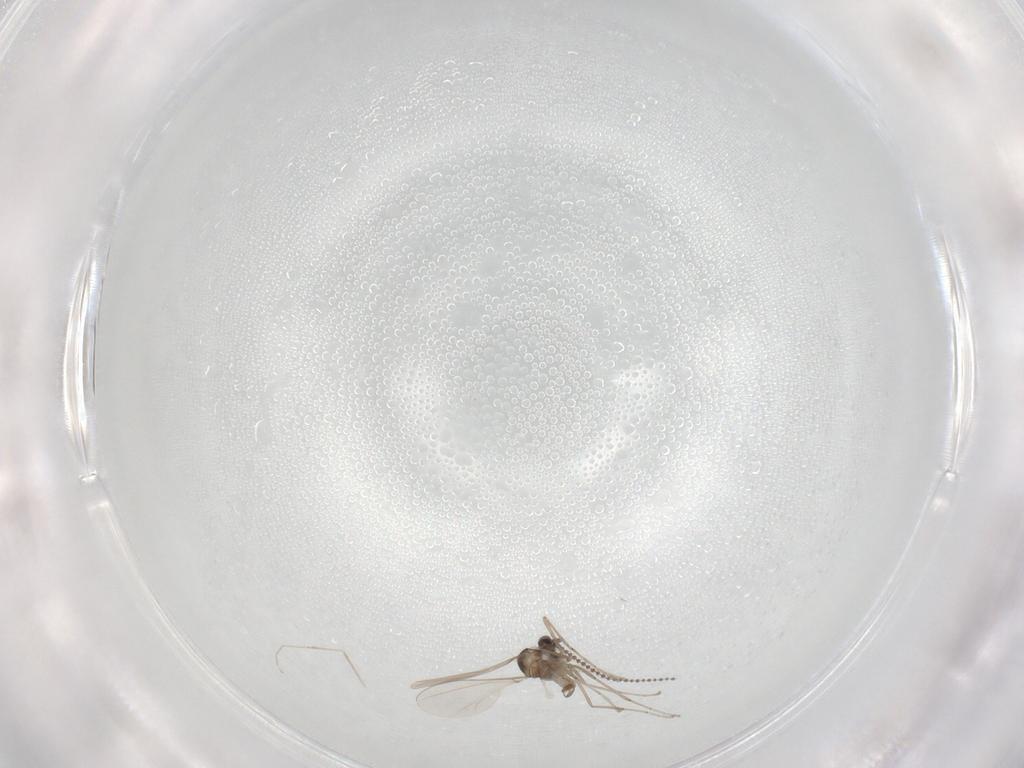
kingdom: Animalia
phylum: Arthropoda
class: Insecta
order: Diptera
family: Cecidomyiidae
